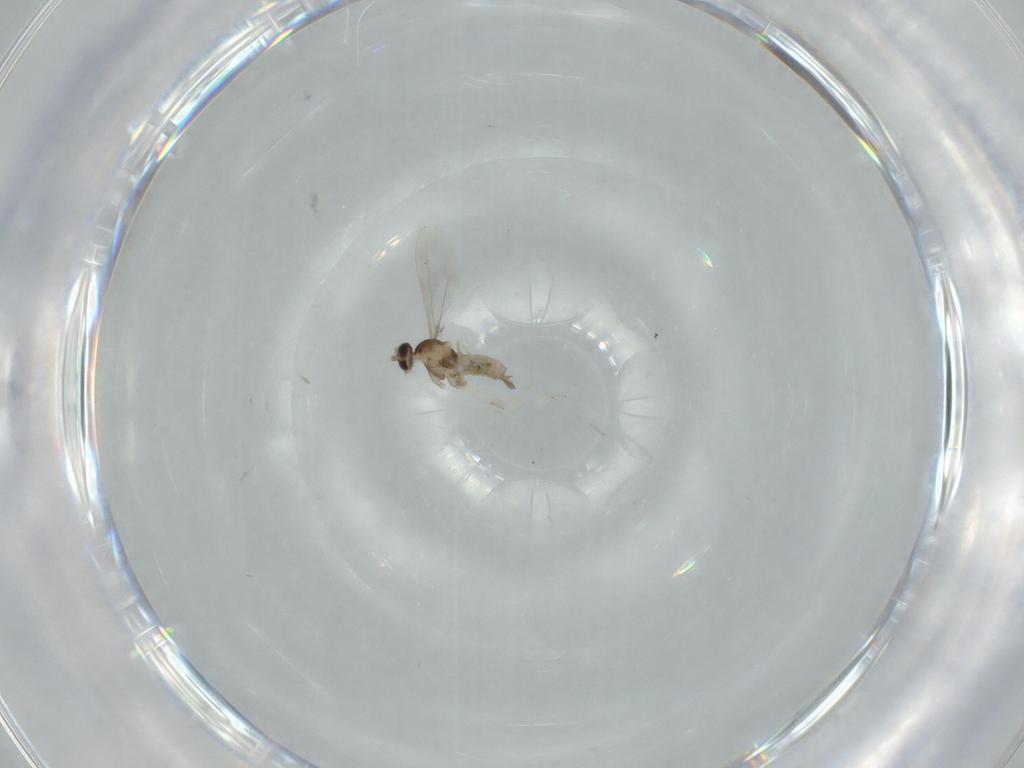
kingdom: Animalia
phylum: Arthropoda
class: Insecta
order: Diptera
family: Cecidomyiidae
